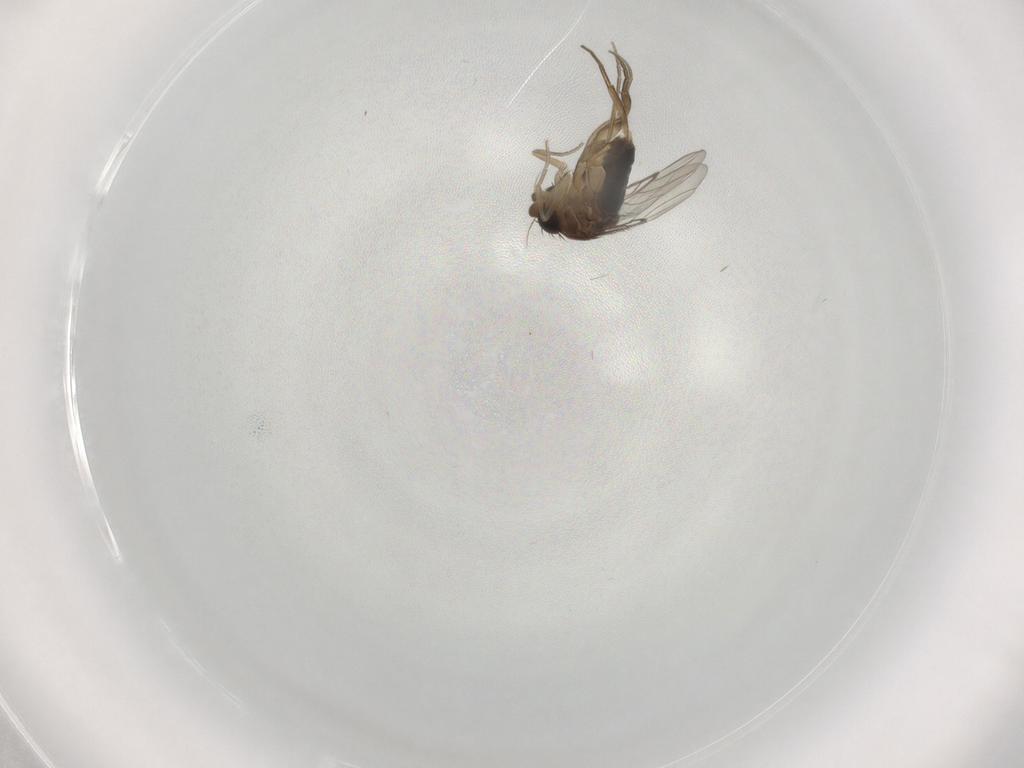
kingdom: Animalia
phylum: Arthropoda
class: Insecta
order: Diptera
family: Phoridae
